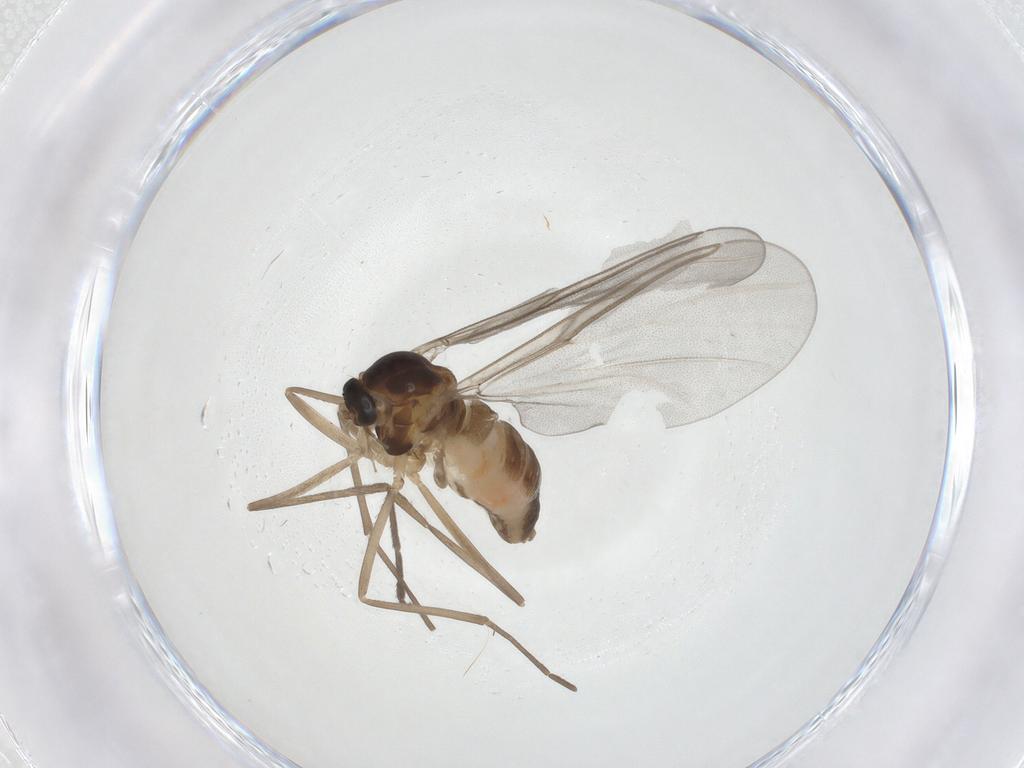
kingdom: Animalia
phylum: Arthropoda
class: Insecta
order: Diptera
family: Cecidomyiidae
